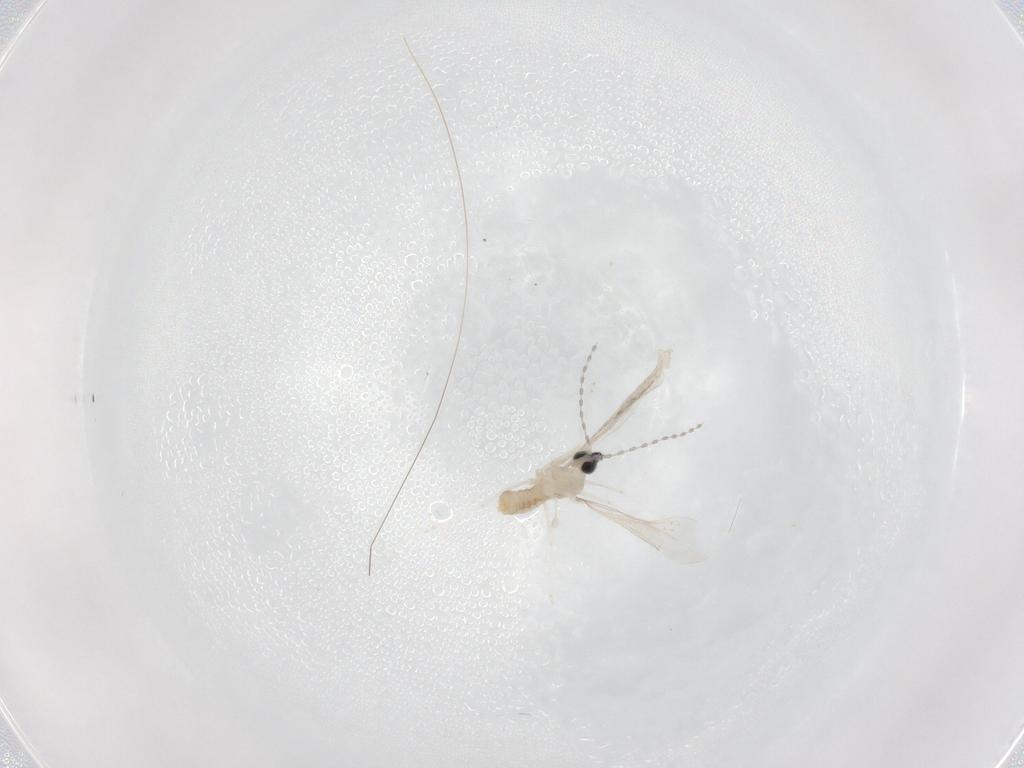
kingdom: Animalia
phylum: Arthropoda
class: Insecta
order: Diptera
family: Cecidomyiidae
